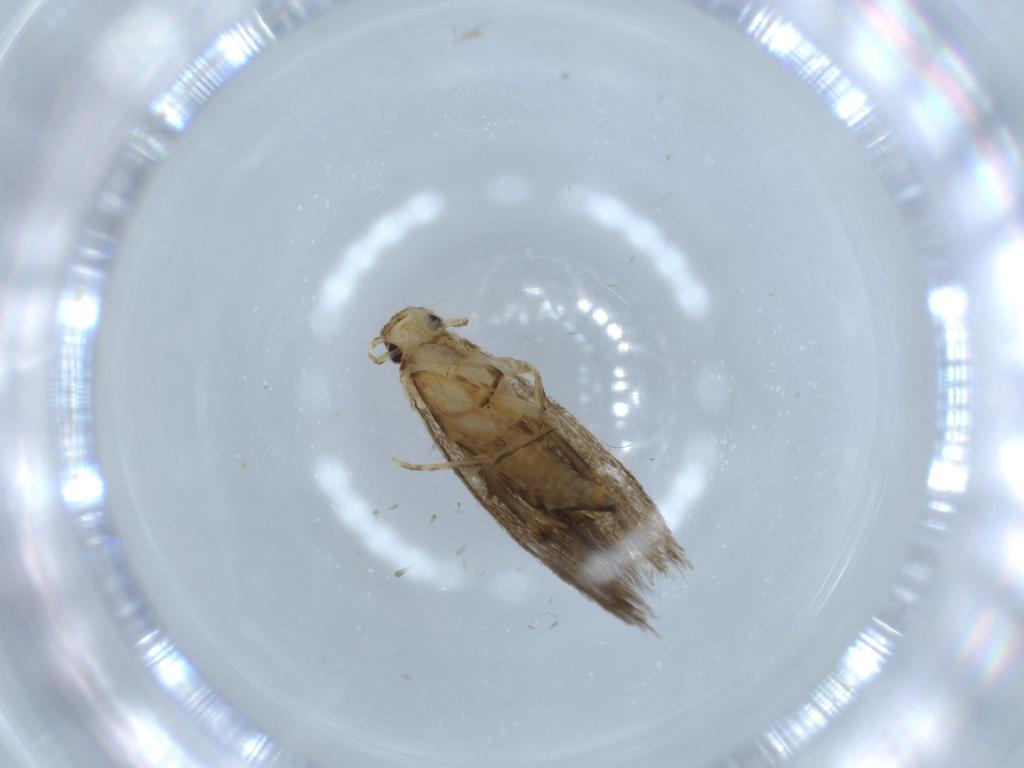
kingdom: Animalia
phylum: Arthropoda
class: Insecta
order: Lepidoptera
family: Tineidae
